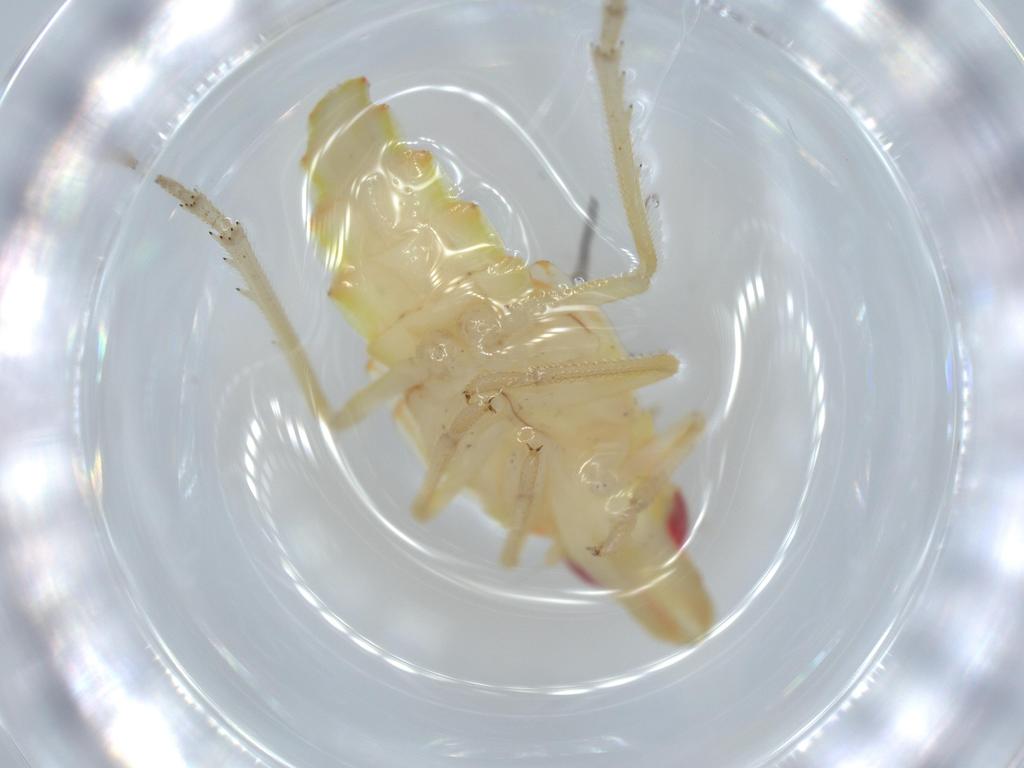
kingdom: Animalia
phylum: Arthropoda
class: Insecta
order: Hemiptera
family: Tropiduchidae
